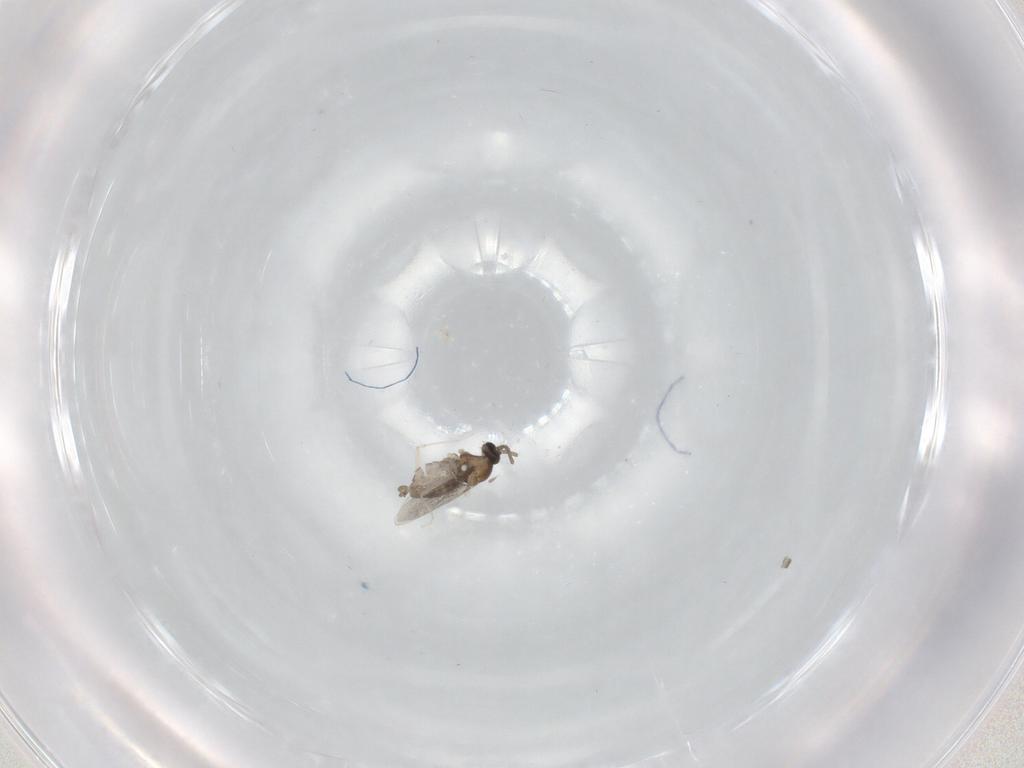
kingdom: Animalia
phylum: Arthropoda
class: Insecta
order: Diptera
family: Cecidomyiidae
